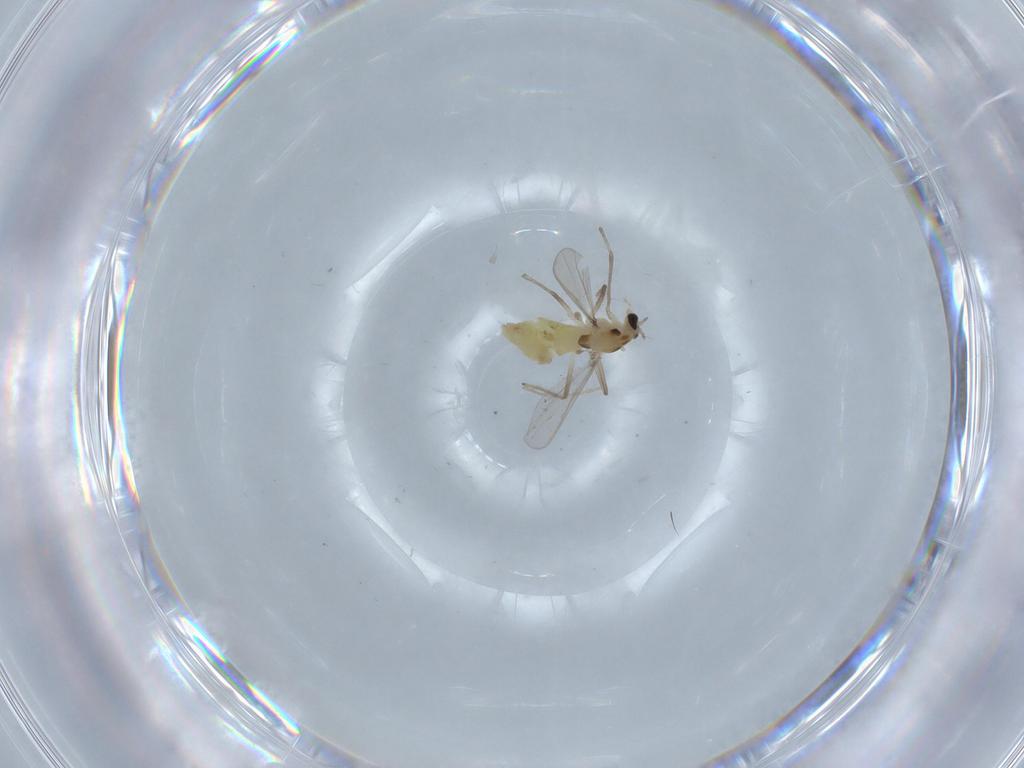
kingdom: Animalia
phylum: Arthropoda
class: Insecta
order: Diptera
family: Chironomidae
